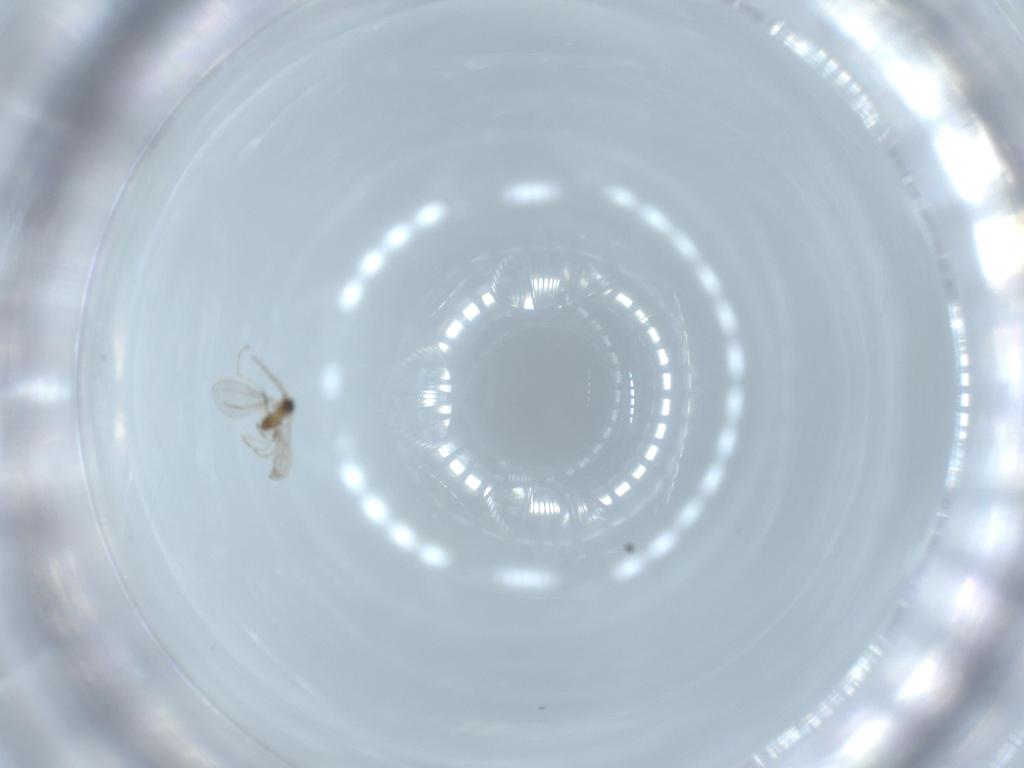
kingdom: Animalia
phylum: Arthropoda
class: Insecta
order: Diptera
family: Cecidomyiidae
